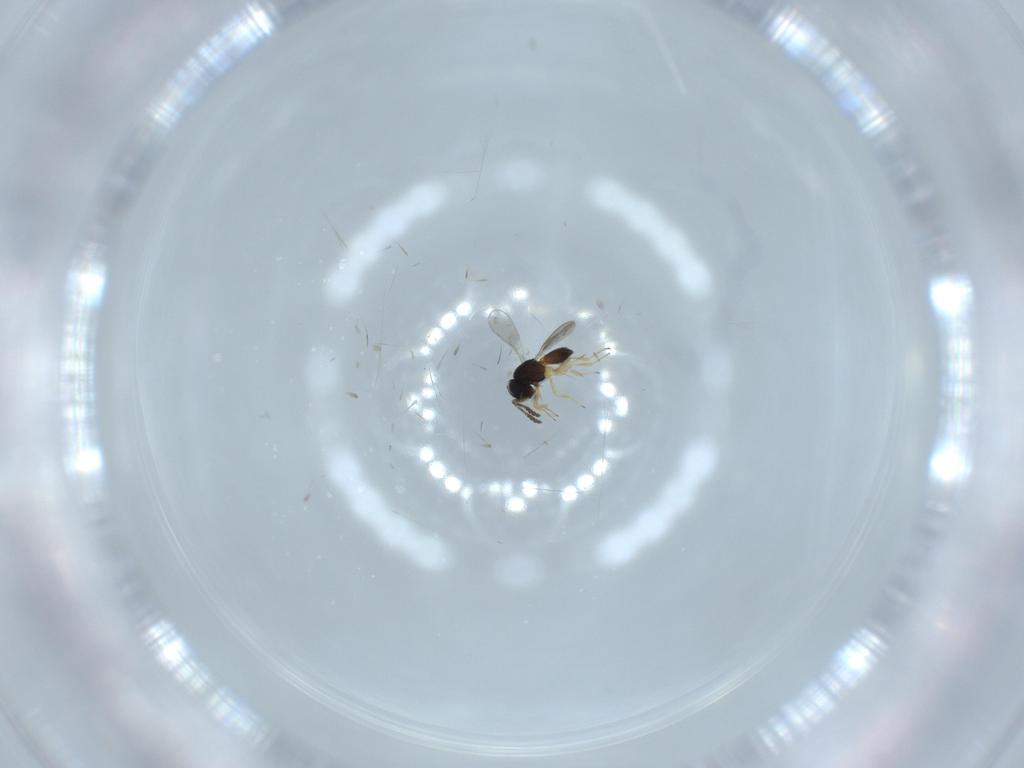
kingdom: Animalia
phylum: Arthropoda
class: Insecta
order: Hymenoptera
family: Scelionidae
